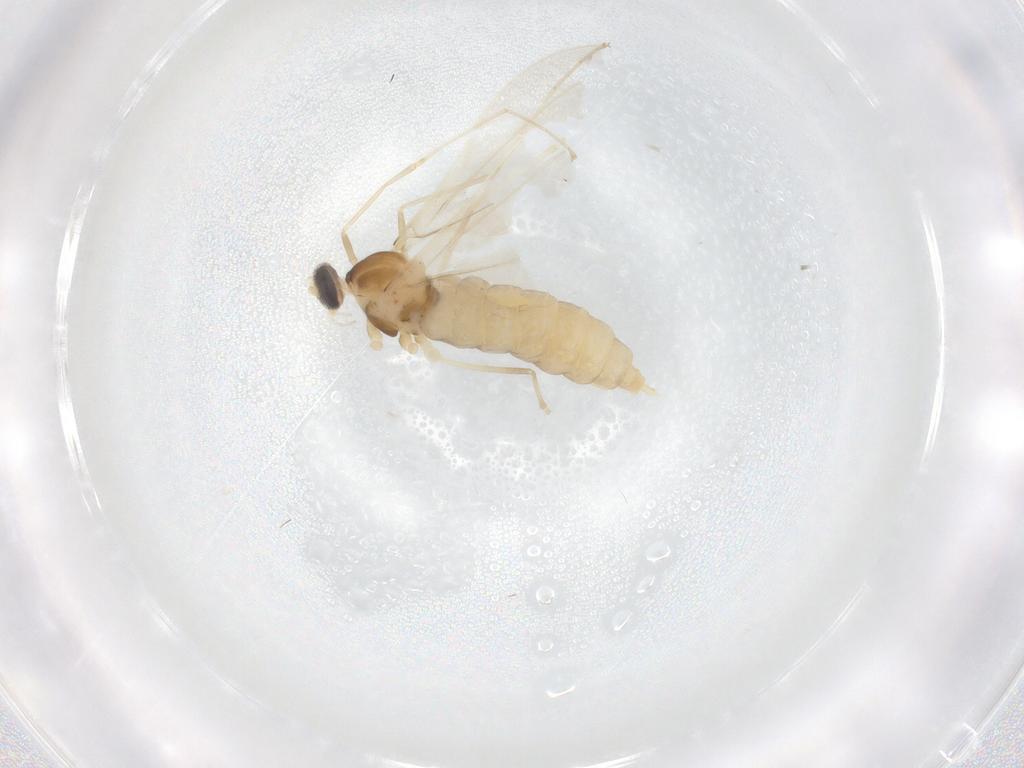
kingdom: Animalia
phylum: Arthropoda
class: Insecta
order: Diptera
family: Cecidomyiidae
